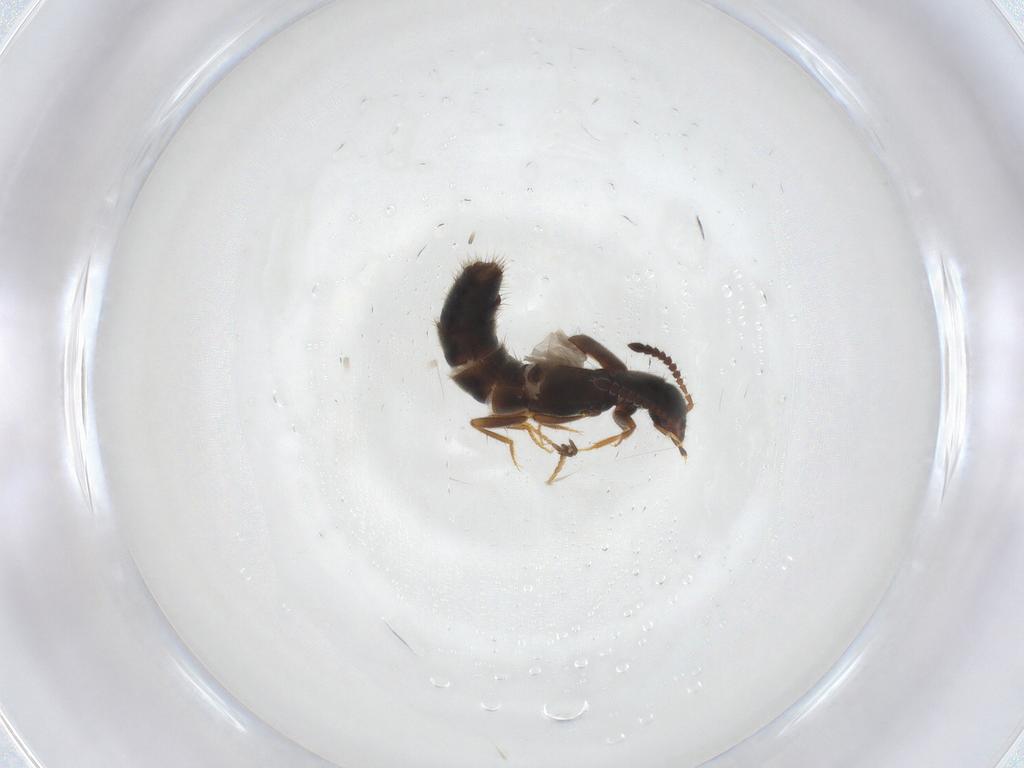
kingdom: Animalia
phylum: Arthropoda
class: Insecta
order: Coleoptera
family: Staphylinidae
